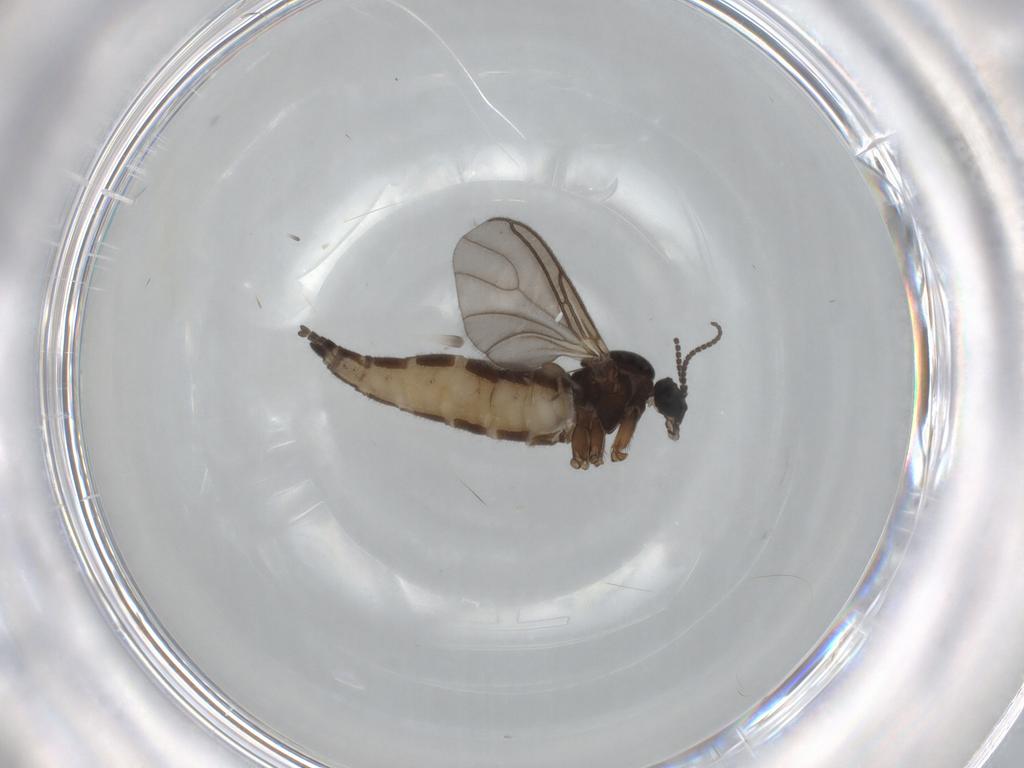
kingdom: Animalia
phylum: Arthropoda
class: Insecta
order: Diptera
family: Sciaridae
